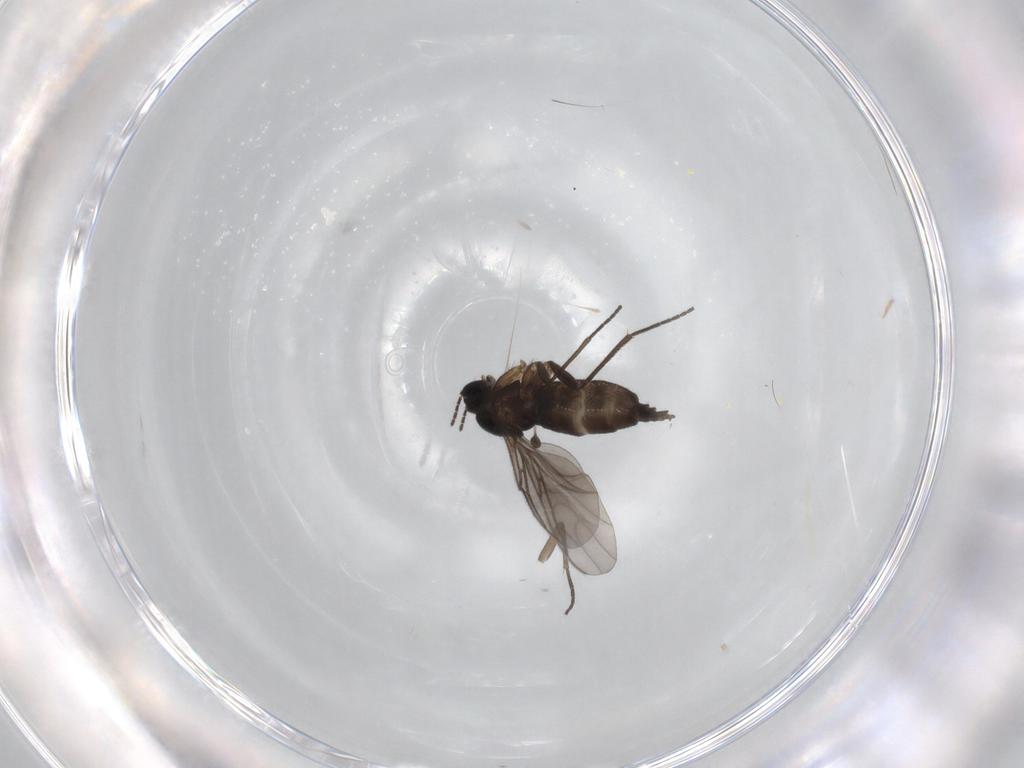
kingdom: Animalia
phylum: Arthropoda
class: Insecta
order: Diptera
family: Sciaridae
